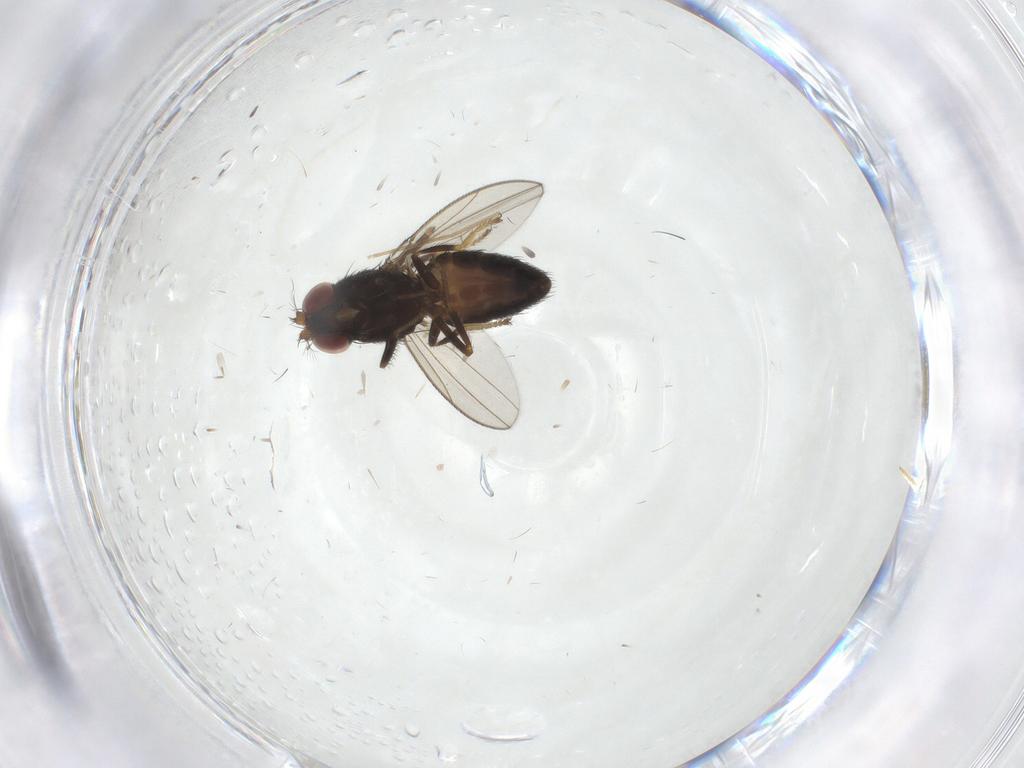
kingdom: Animalia
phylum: Arthropoda
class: Insecta
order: Diptera
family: Ephydridae
